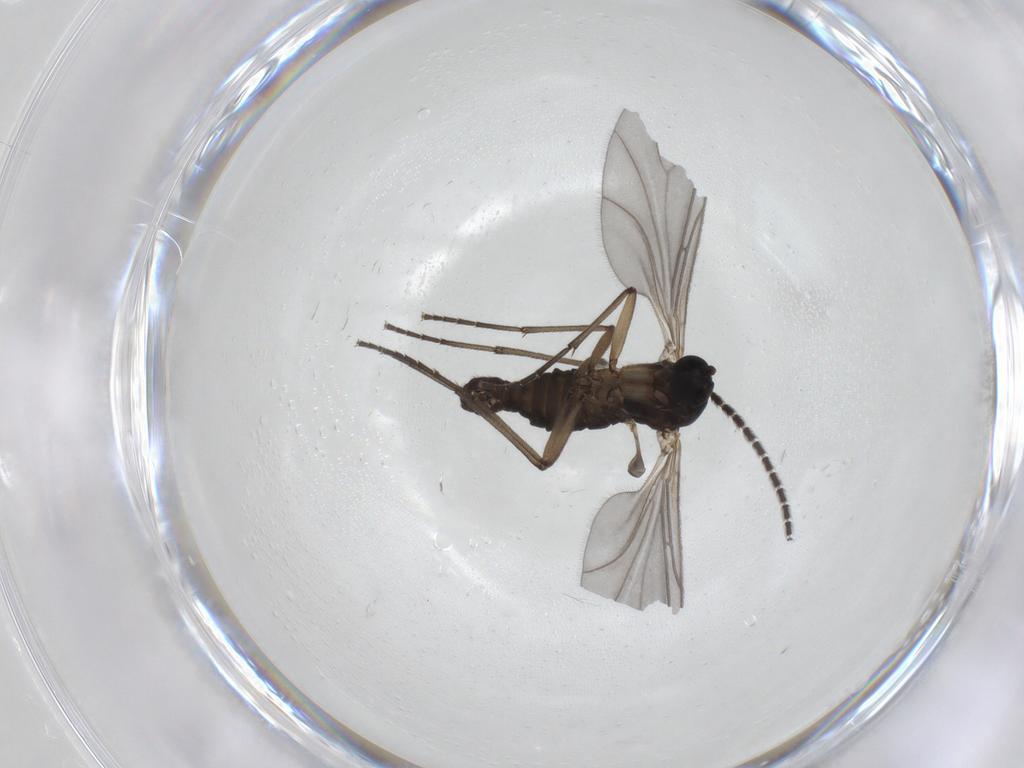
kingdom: Animalia
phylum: Arthropoda
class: Insecta
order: Diptera
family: Sciaridae
